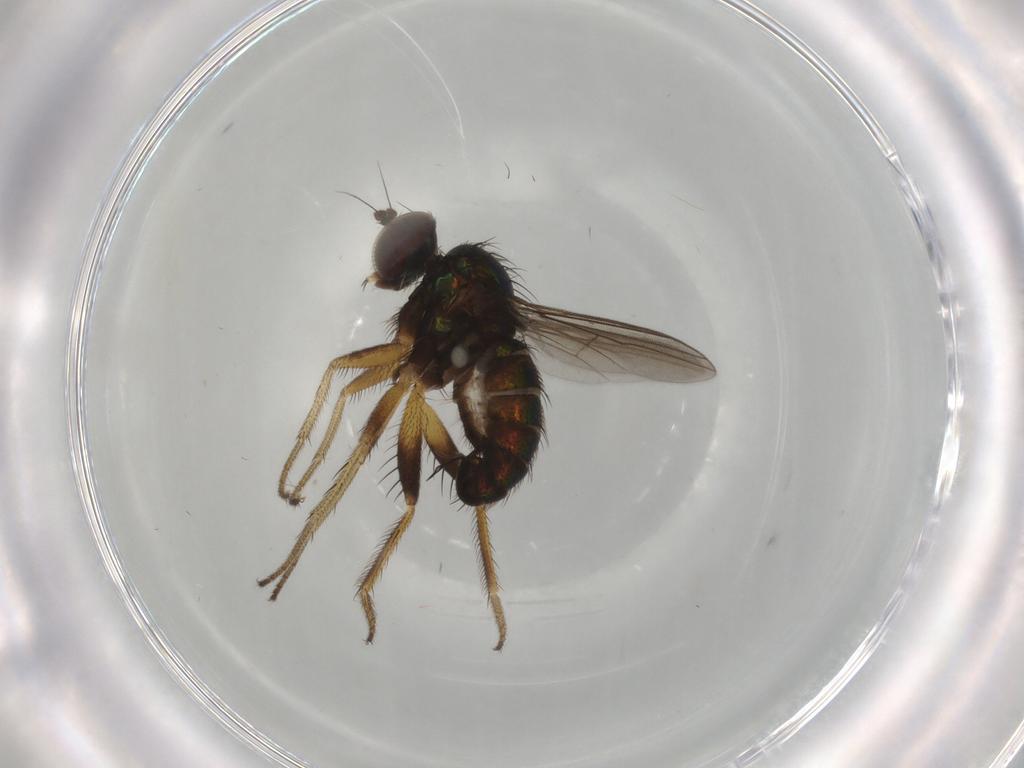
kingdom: Animalia
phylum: Arthropoda
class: Insecta
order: Diptera
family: Dolichopodidae
